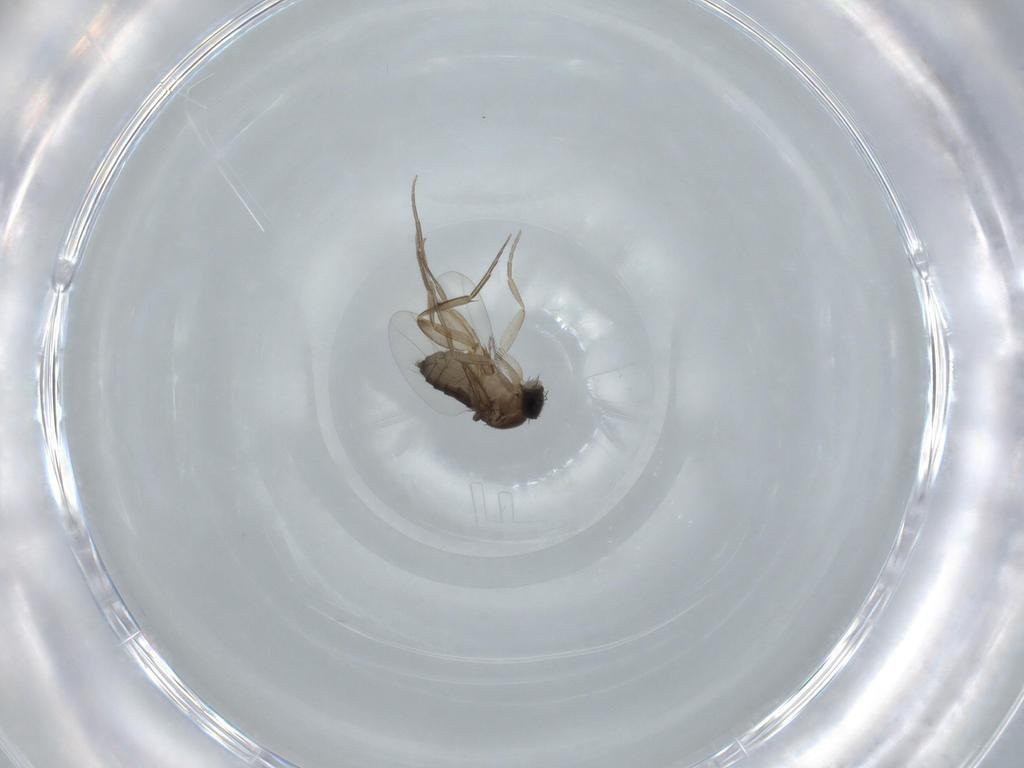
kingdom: Animalia
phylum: Arthropoda
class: Insecta
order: Diptera
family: Phoridae
